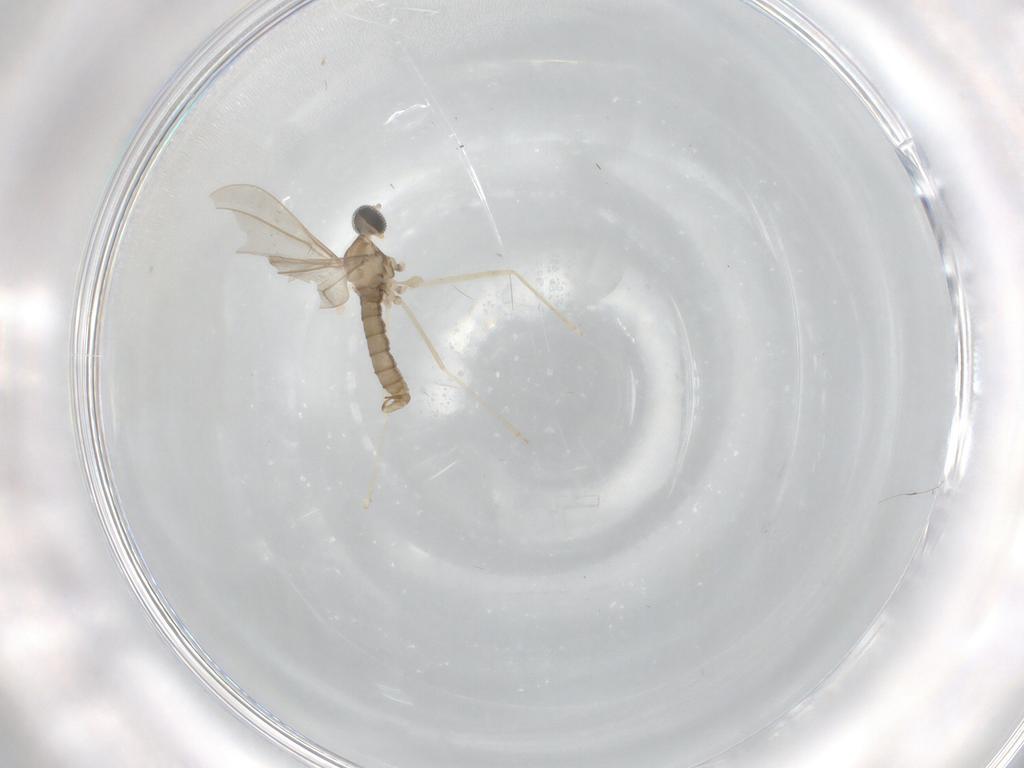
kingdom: Animalia
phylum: Arthropoda
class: Insecta
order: Diptera
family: Cecidomyiidae
